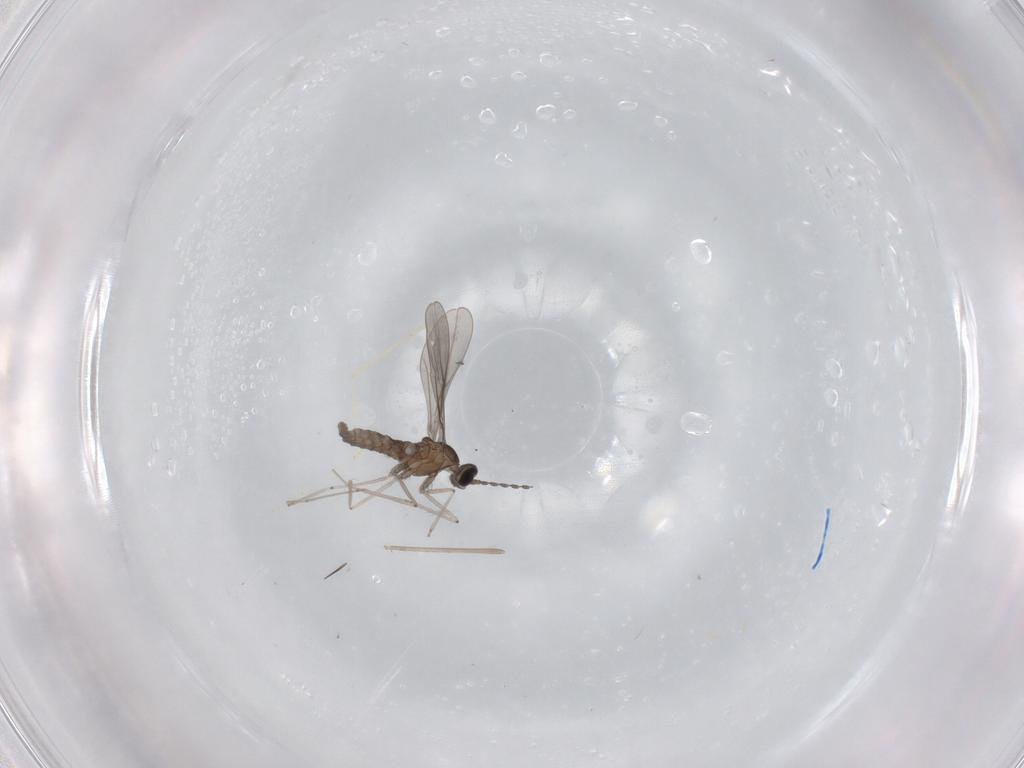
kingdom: Animalia
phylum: Arthropoda
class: Insecta
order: Diptera
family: Cecidomyiidae
